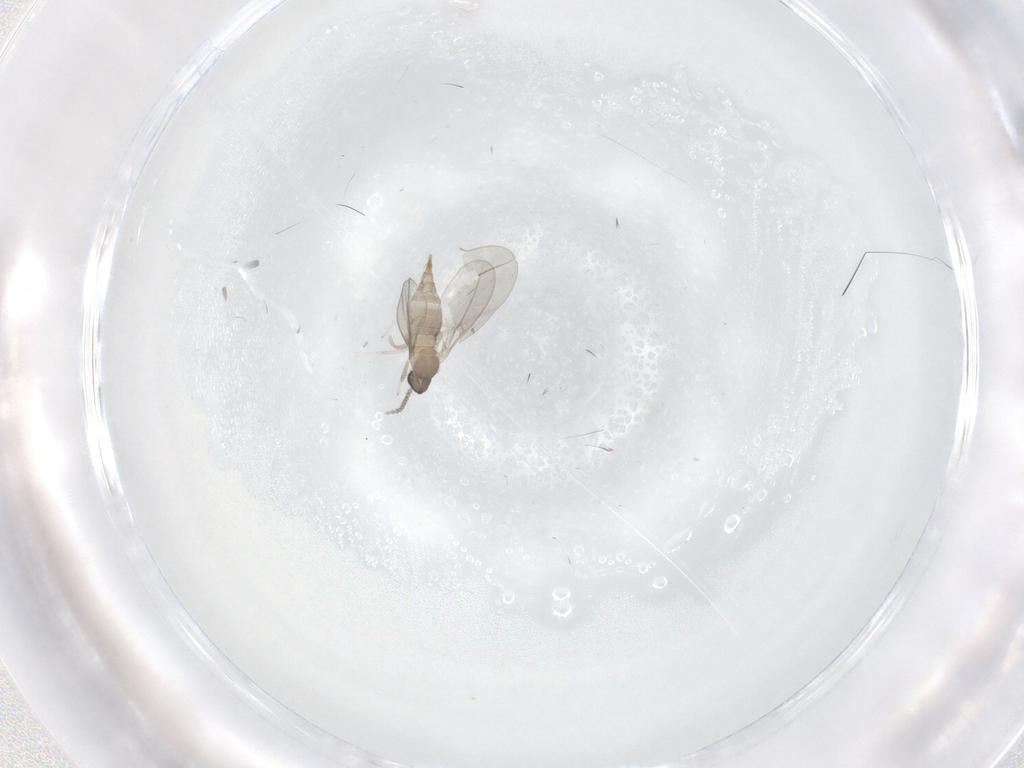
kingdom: Animalia
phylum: Arthropoda
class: Insecta
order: Diptera
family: Cecidomyiidae
